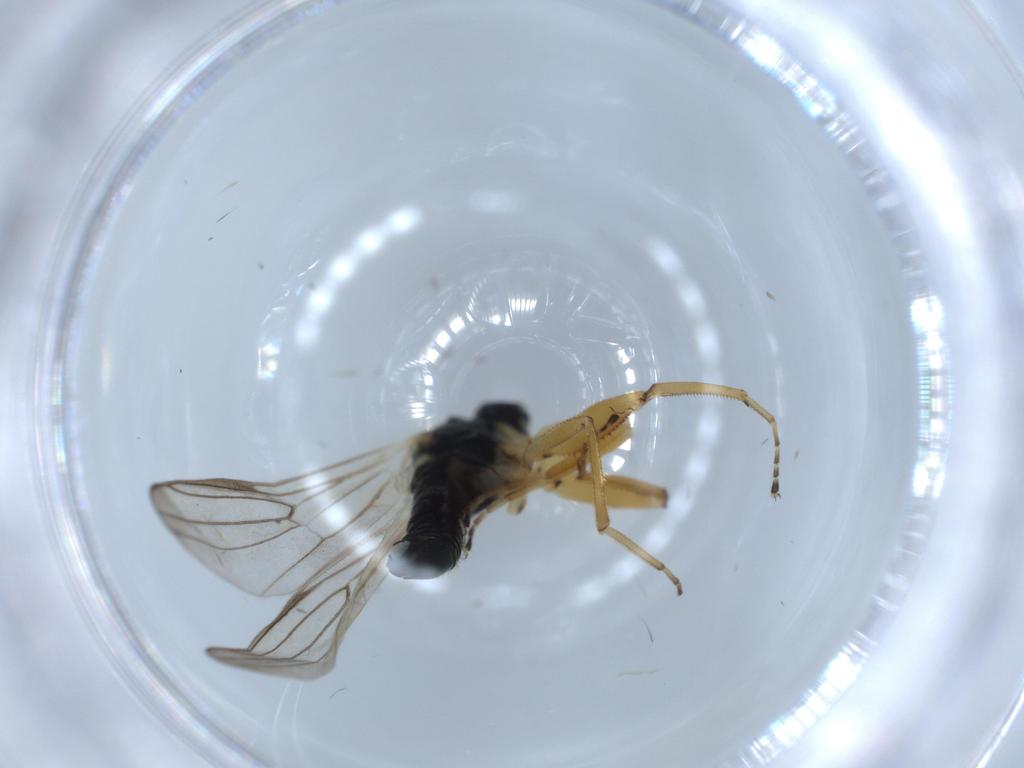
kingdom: Animalia
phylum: Arthropoda
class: Insecta
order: Diptera
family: Hybotidae
